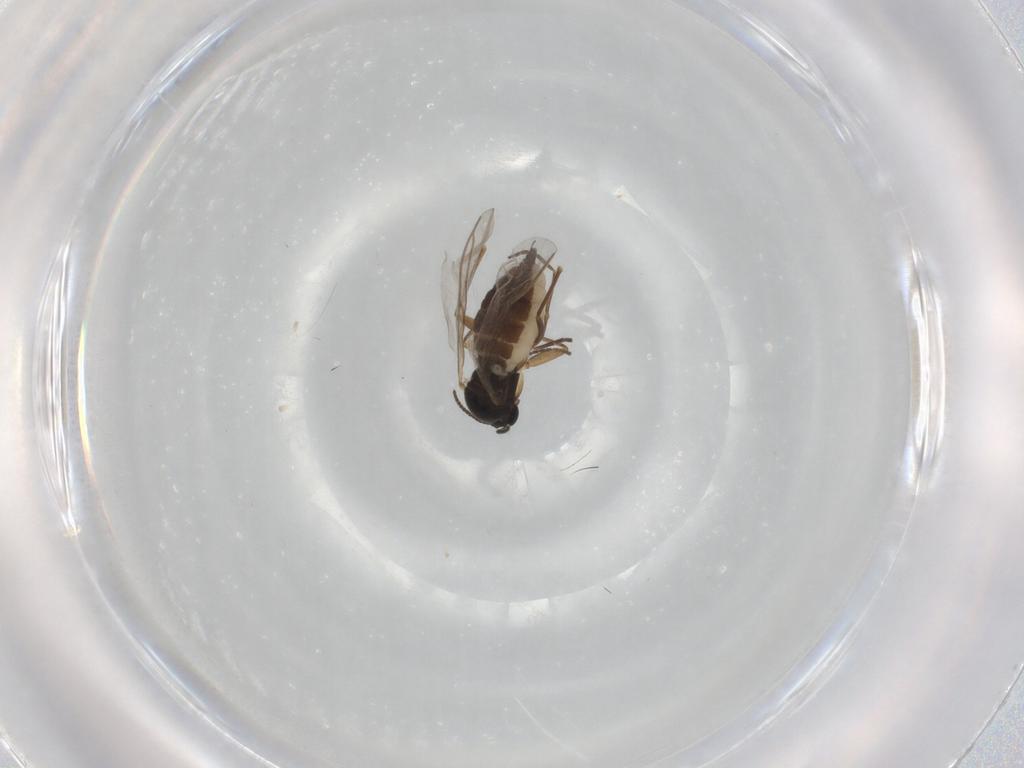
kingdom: Animalia
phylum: Arthropoda
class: Insecta
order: Diptera
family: Sciaridae
